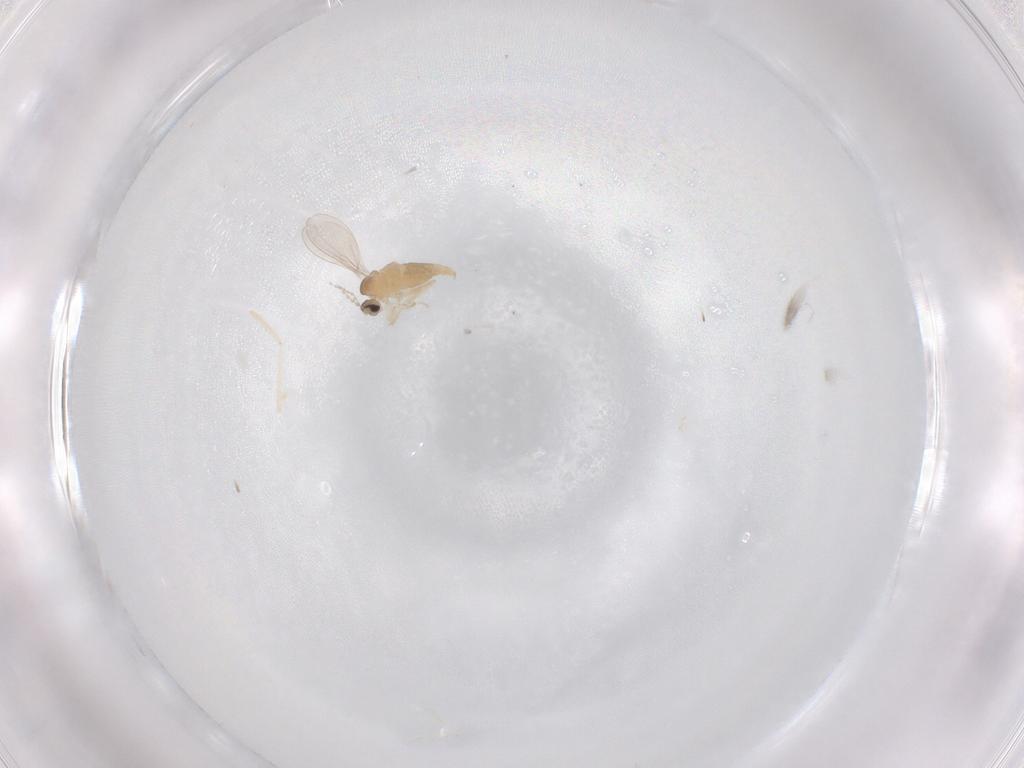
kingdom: Animalia
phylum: Arthropoda
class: Insecta
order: Diptera
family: Cecidomyiidae
